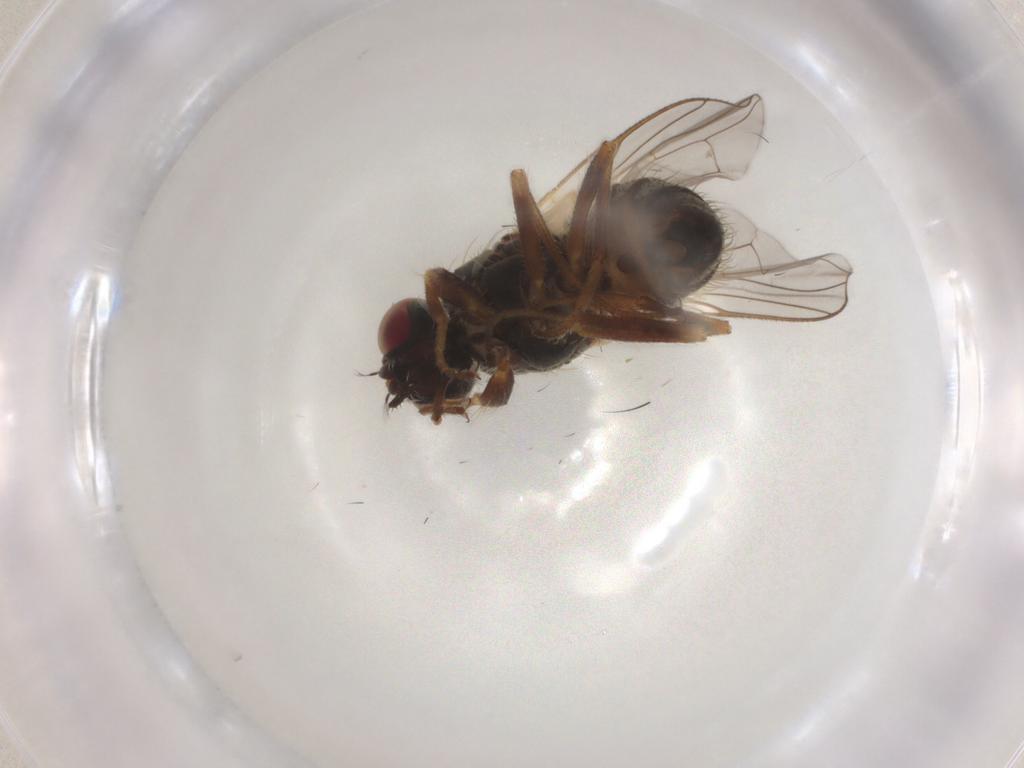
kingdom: Animalia
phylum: Arthropoda
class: Insecta
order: Diptera
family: Muscidae
